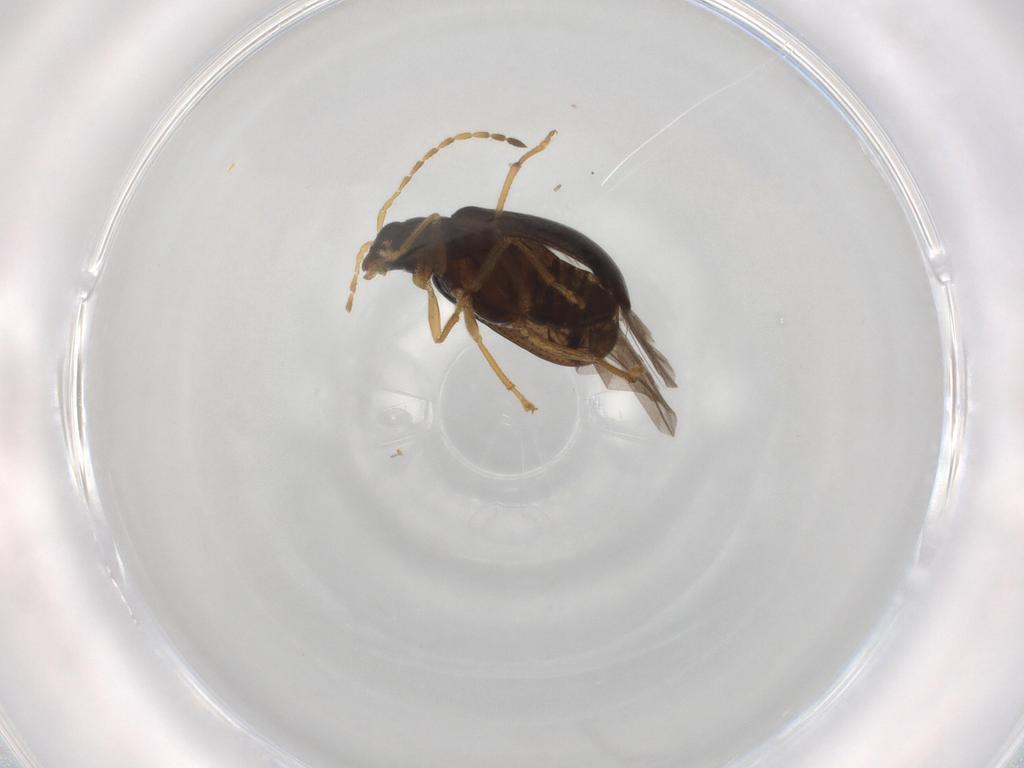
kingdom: Animalia
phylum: Arthropoda
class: Insecta
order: Coleoptera
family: Chrysomelidae
